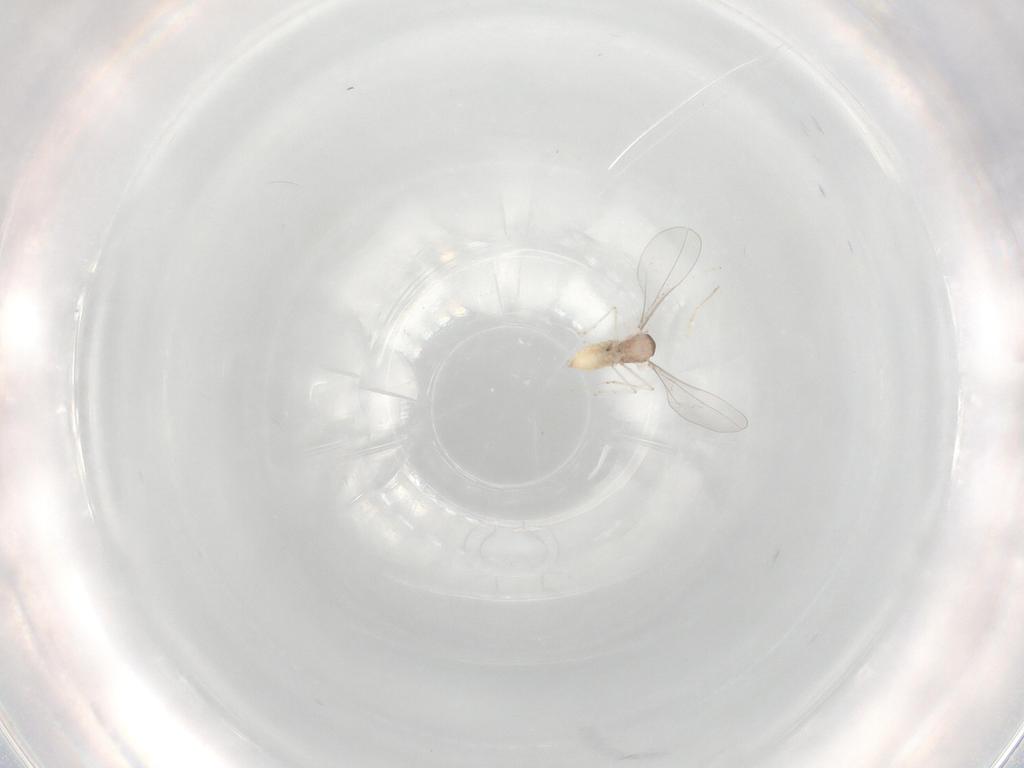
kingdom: Animalia
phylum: Arthropoda
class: Insecta
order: Diptera
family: Cecidomyiidae
